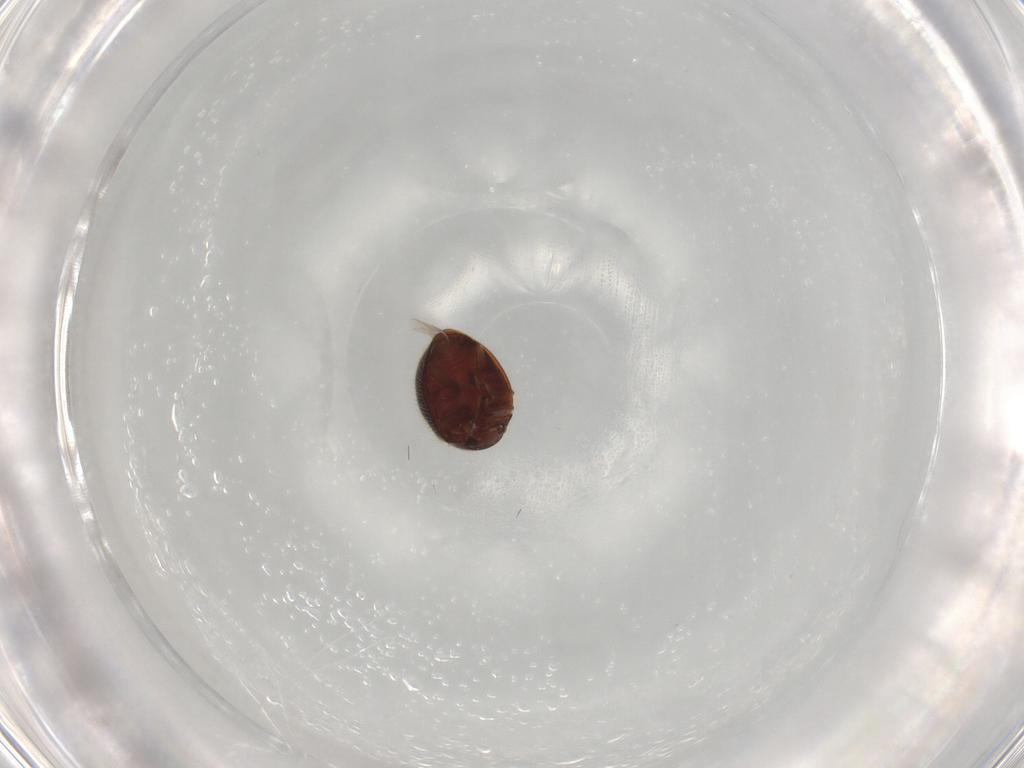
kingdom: Animalia
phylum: Arthropoda
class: Insecta
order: Coleoptera
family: Coccinellidae
